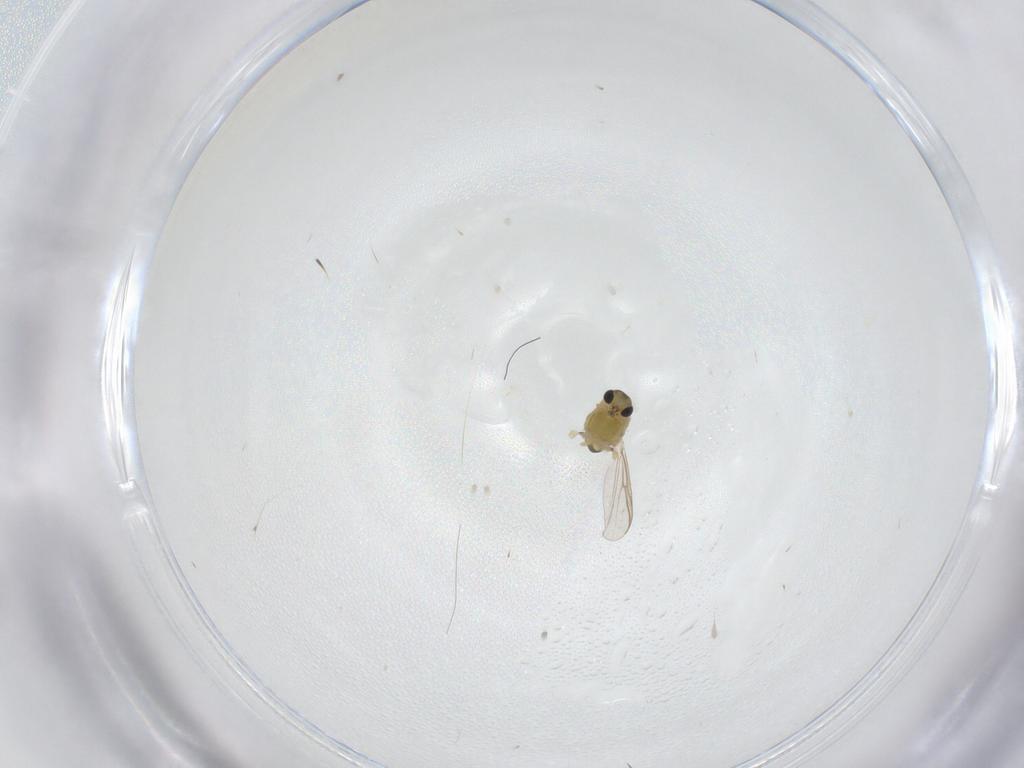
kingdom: Animalia
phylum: Arthropoda
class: Insecta
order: Diptera
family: Chironomidae
